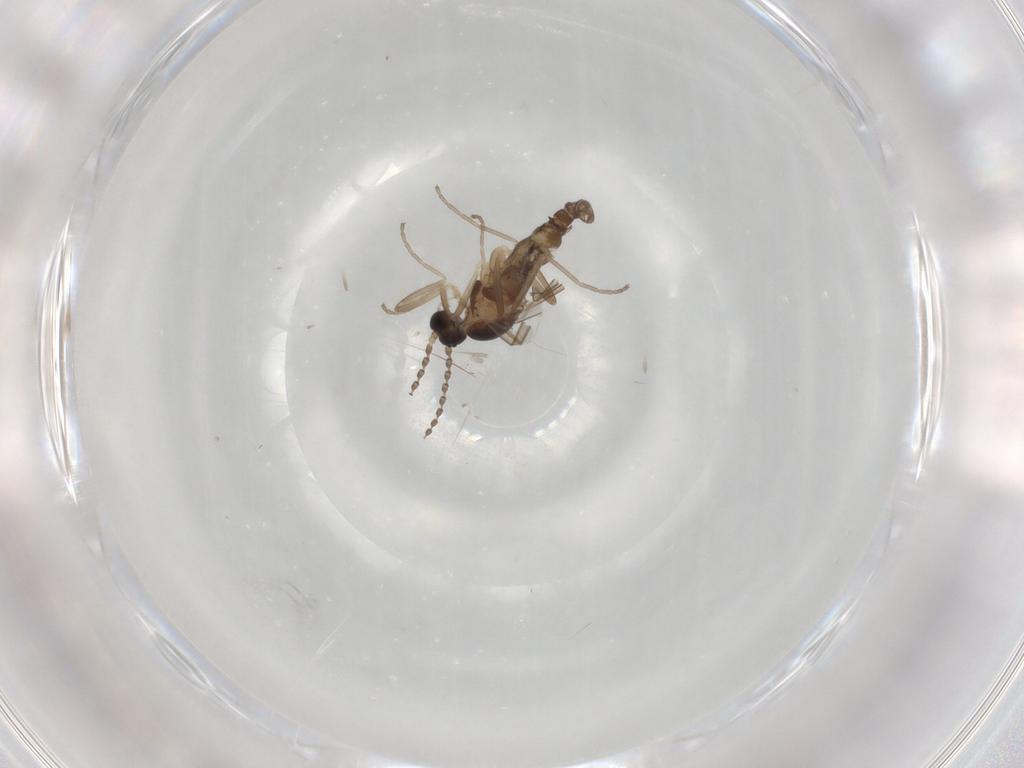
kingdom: Animalia
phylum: Arthropoda
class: Insecta
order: Diptera
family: Cecidomyiidae
